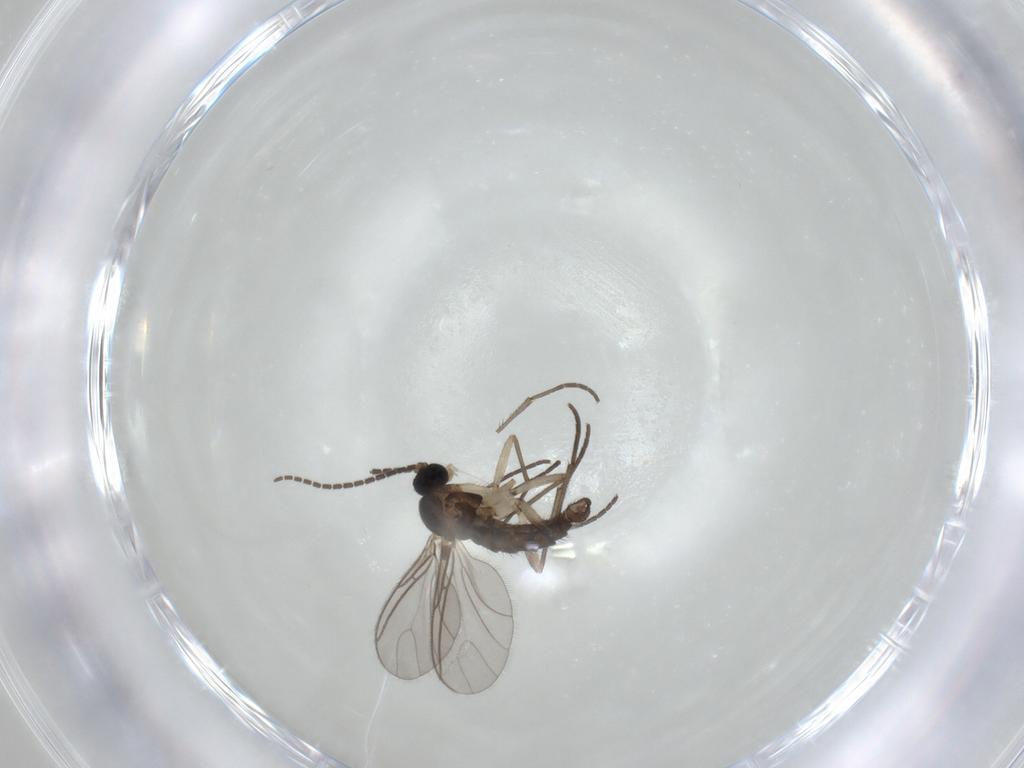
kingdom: Animalia
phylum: Arthropoda
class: Insecta
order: Diptera
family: Sciaridae
